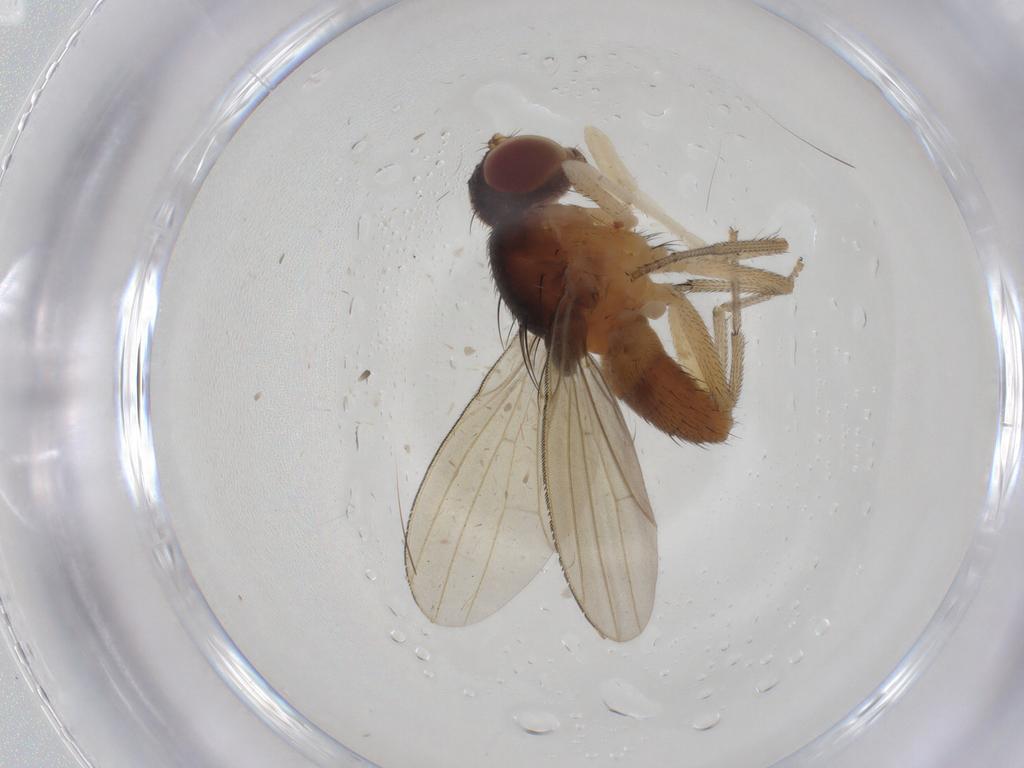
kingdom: Animalia
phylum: Arthropoda
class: Insecta
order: Diptera
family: Lauxaniidae
